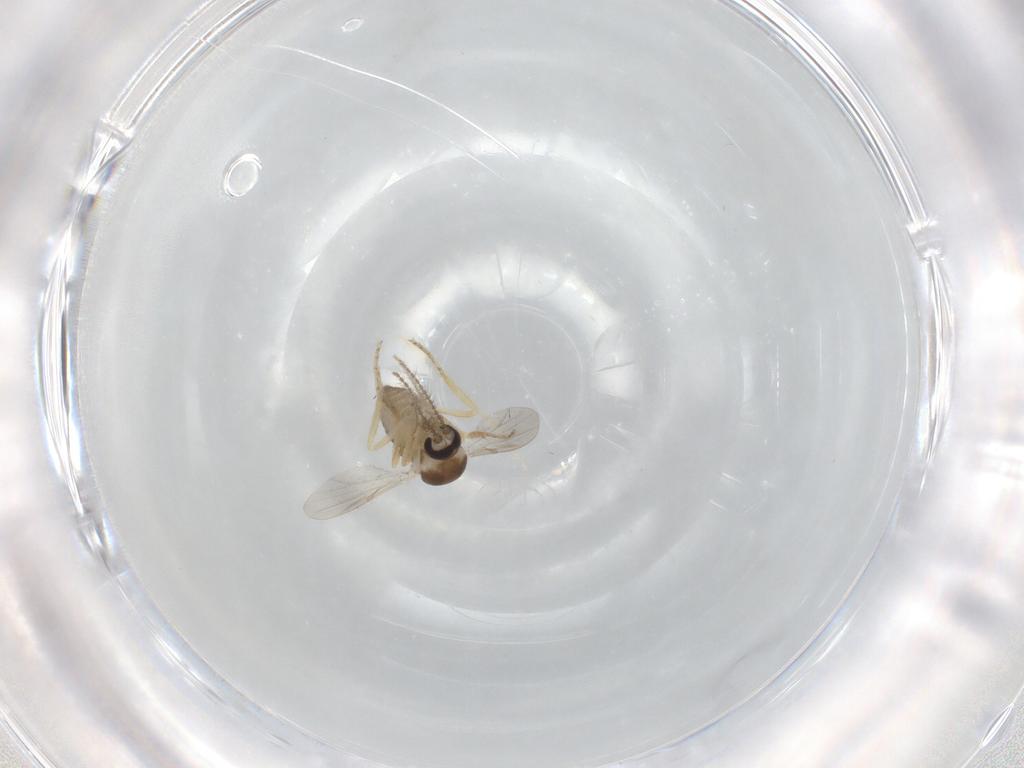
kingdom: Animalia
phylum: Arthropoda
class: Insecta
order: Diptera
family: Ceratopogonidae
